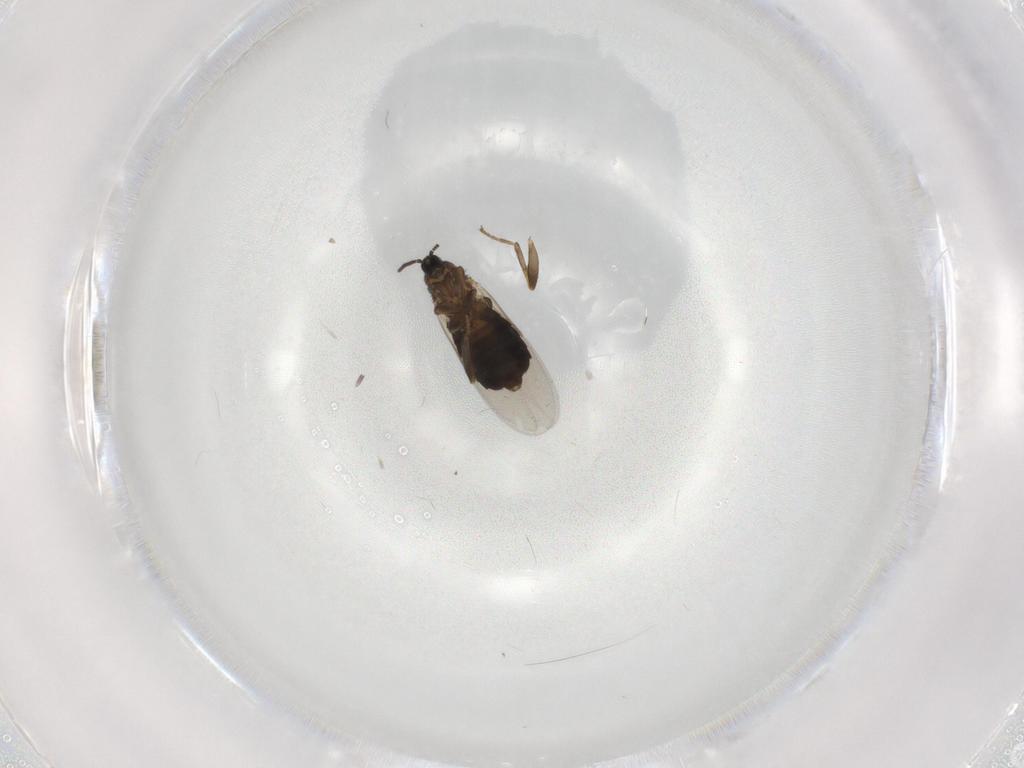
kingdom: Animalia
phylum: Arthropoda
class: Insecta
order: Diptera
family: Scatopsidae
